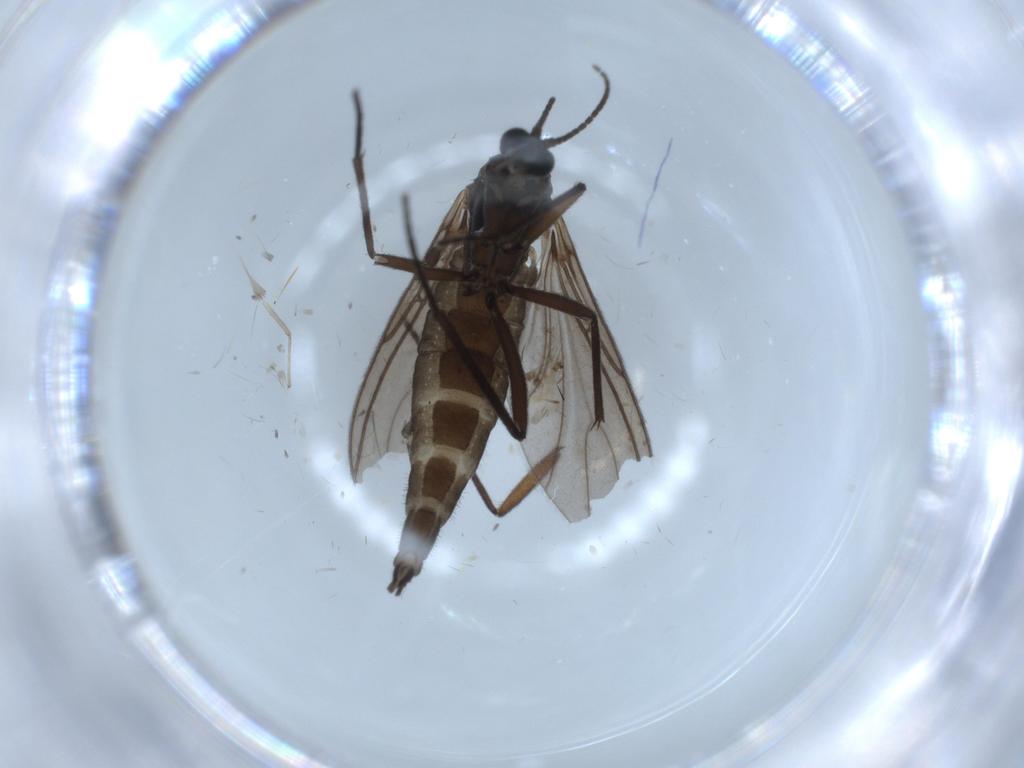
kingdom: Animalia
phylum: Arthropoda
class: Insecta
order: Diptera
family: Sciaridae
